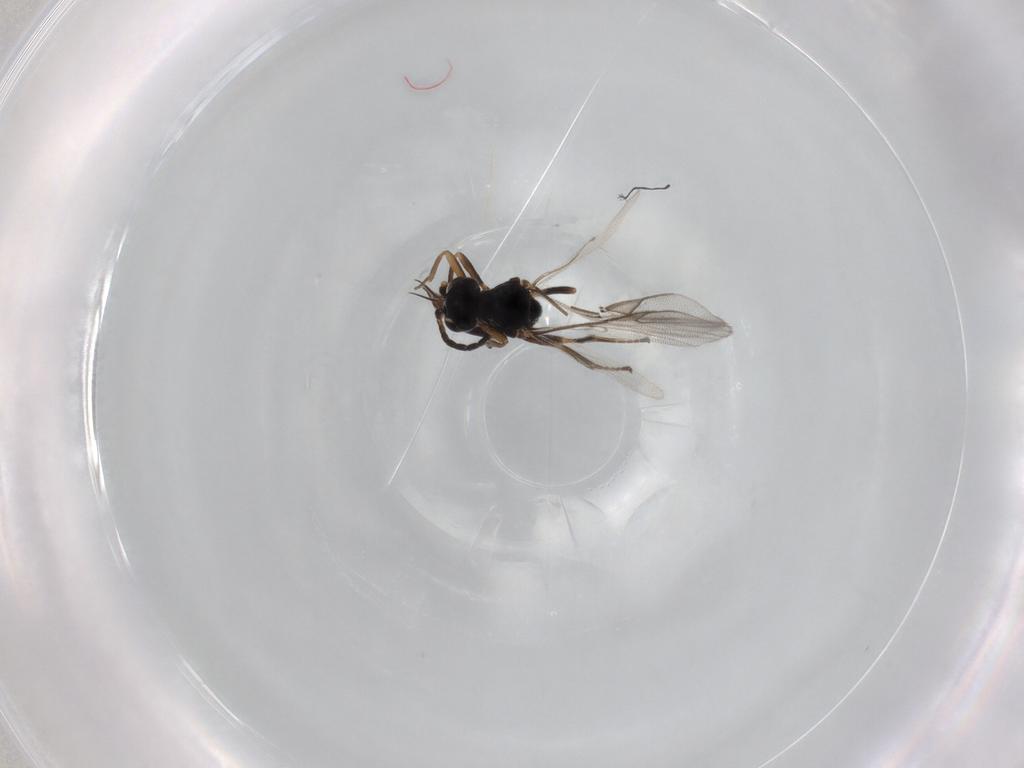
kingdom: Animalia
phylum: Arthropoda
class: Insecta
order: Hymenoptera
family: Braconidae
